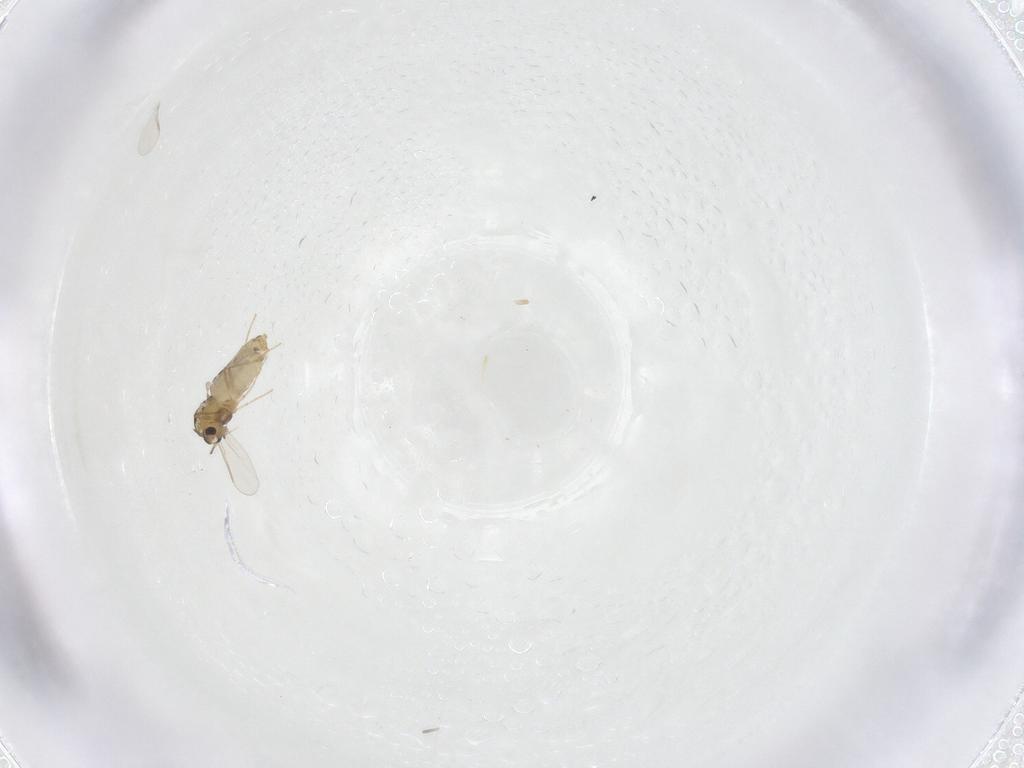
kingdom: Animalia
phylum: Arthropoda
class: Insecta
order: Diptera
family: Chironomidae
